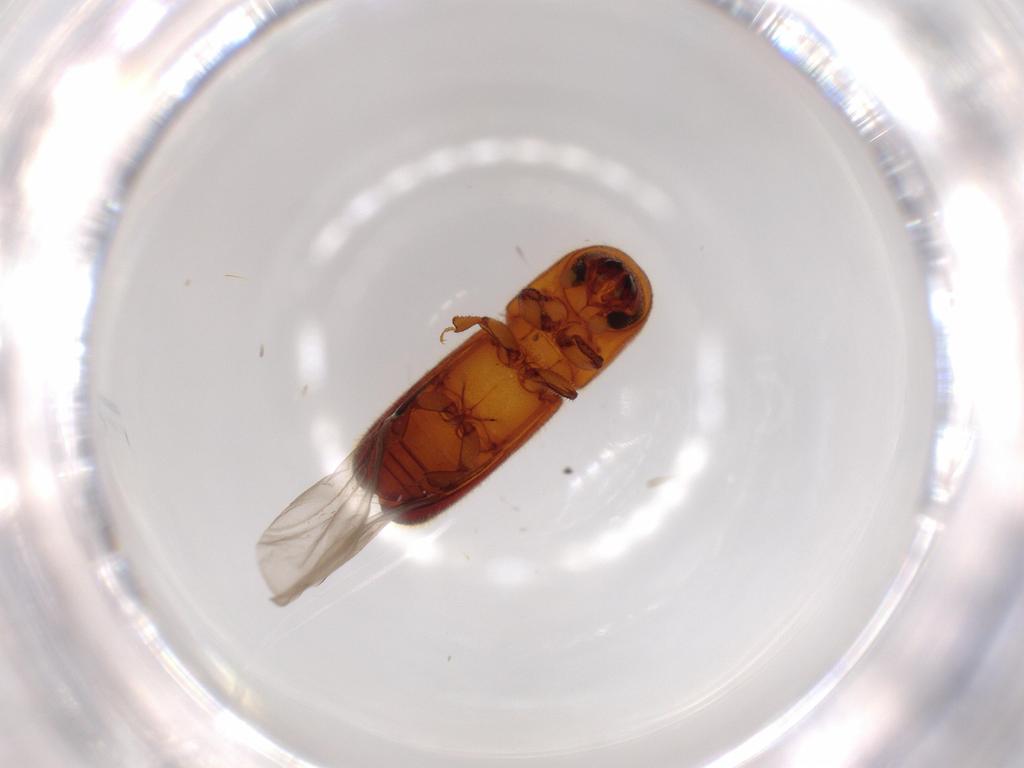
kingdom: Animalia
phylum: Arthropoda
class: Insecta
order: Coleoptera
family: Curculionidae
